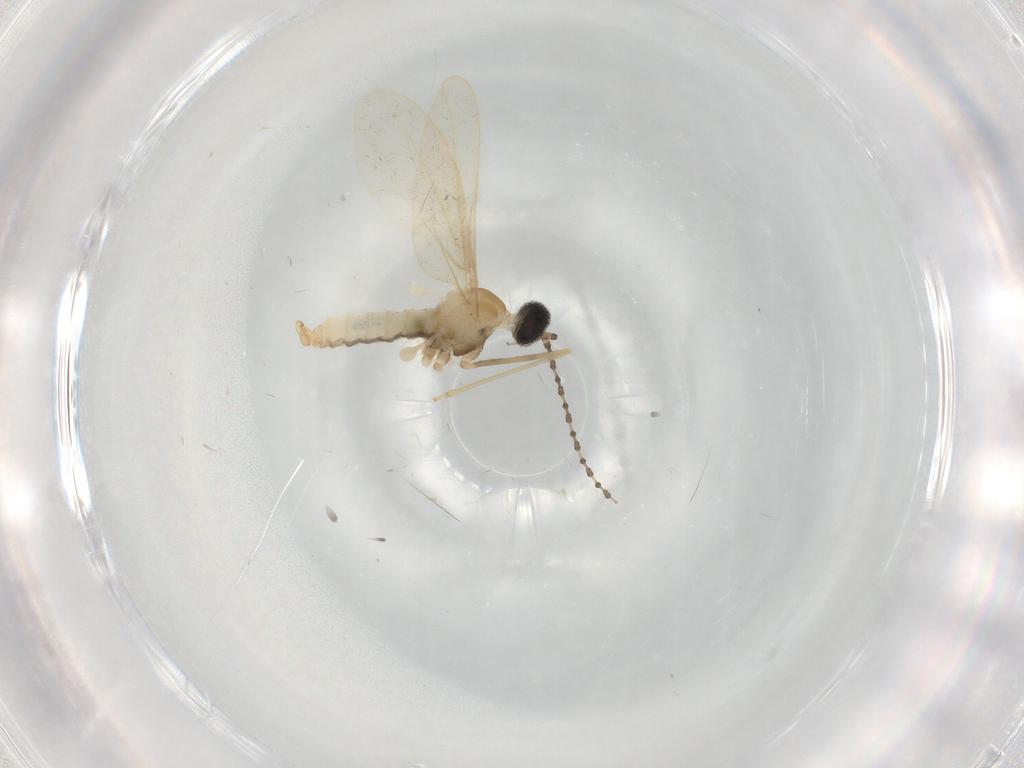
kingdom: Animalia
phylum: Arthropoda
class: Insecta
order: Diptera
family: Cecidomyiidae
